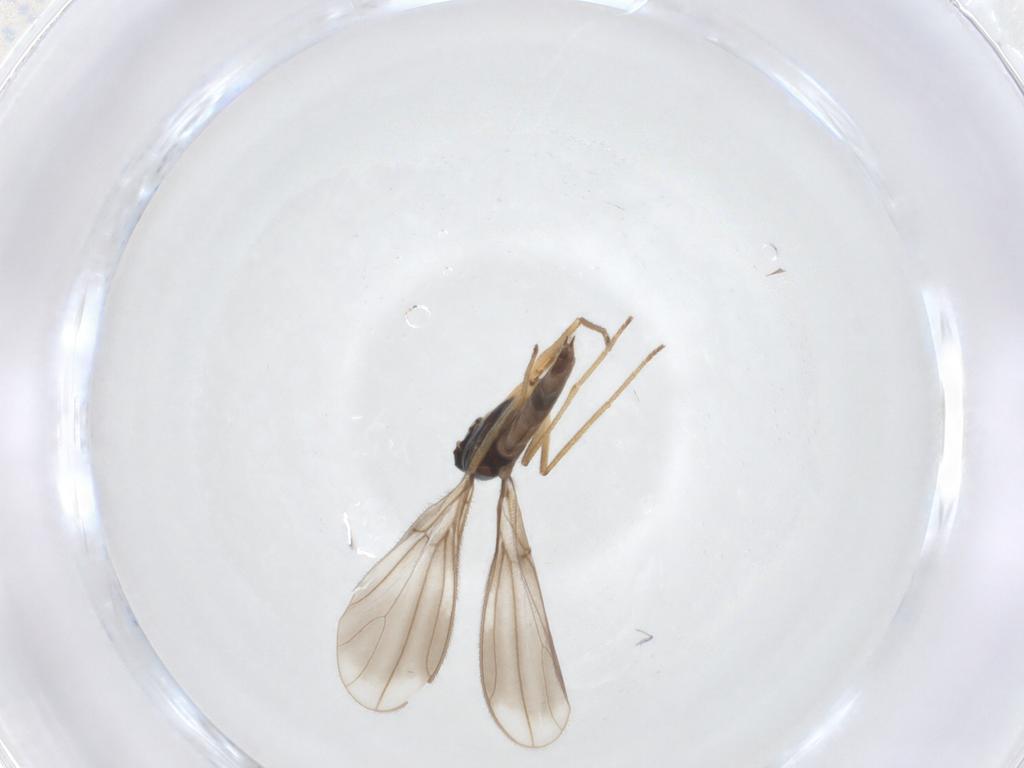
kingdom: Animalia
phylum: Arthropoda
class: Insecta
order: Diptera
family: Empididae
